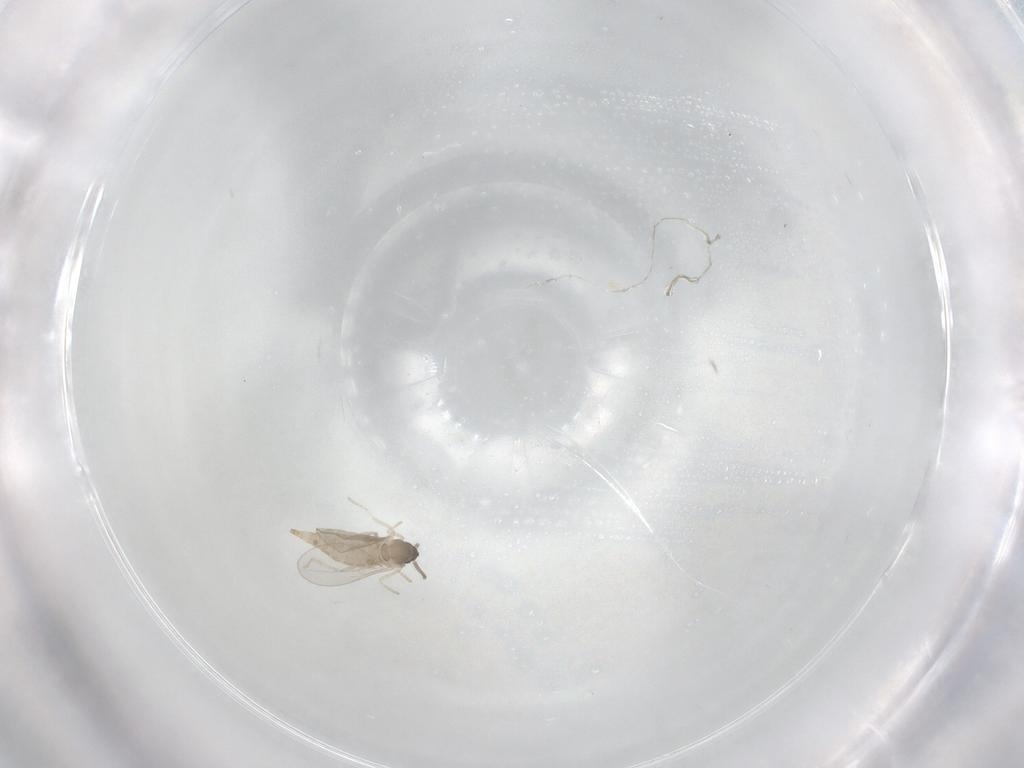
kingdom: Animalia
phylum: Arthropoda
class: Insecta
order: Diptera
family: Cecidomyiidae
